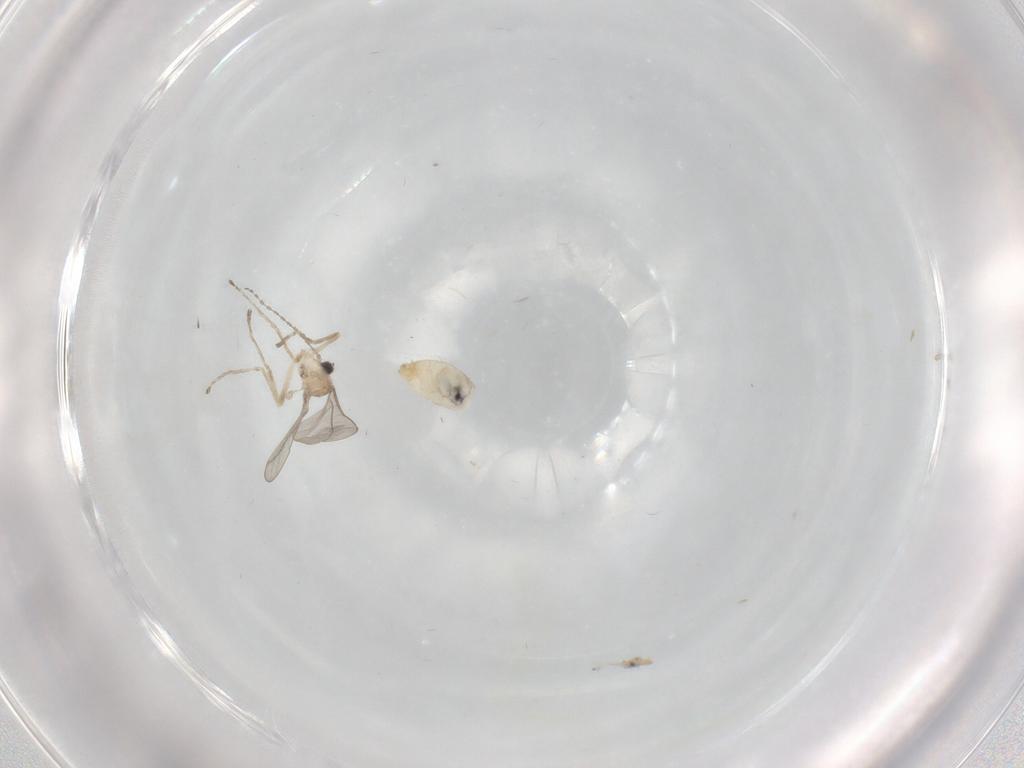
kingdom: Animalia
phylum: Arthropoda
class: Insecta
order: Diptera
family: Cecidomyiidae
